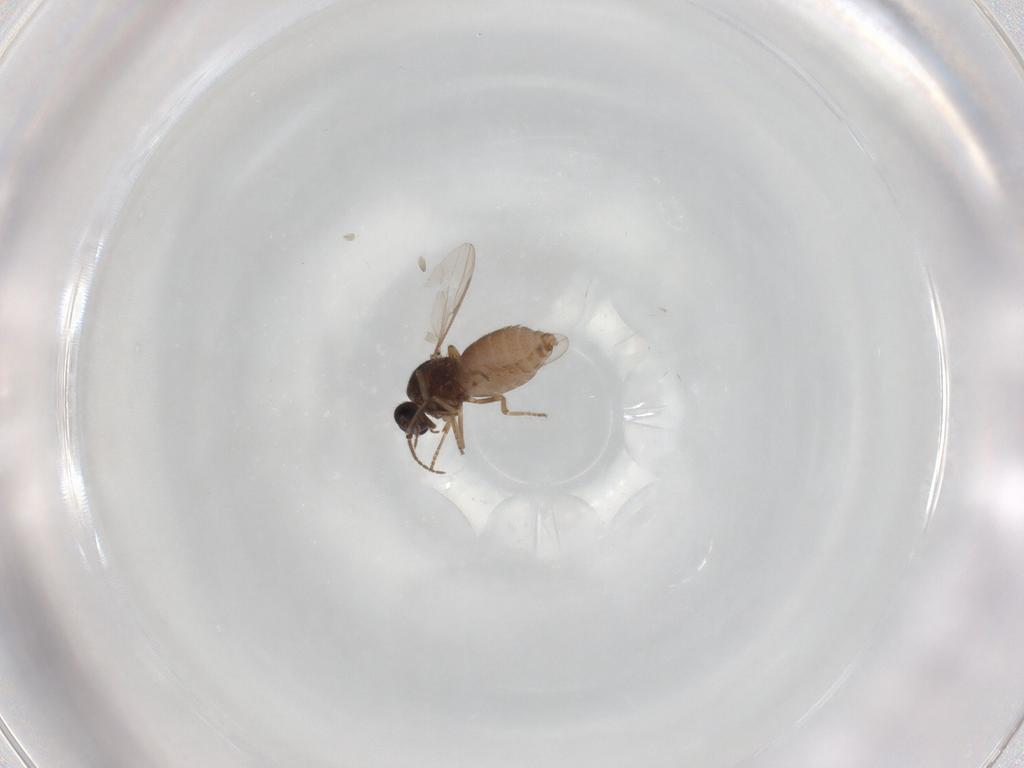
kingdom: Animalia
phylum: Arthropoda
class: Insecta
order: Diptera
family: Ceratopogonidae
